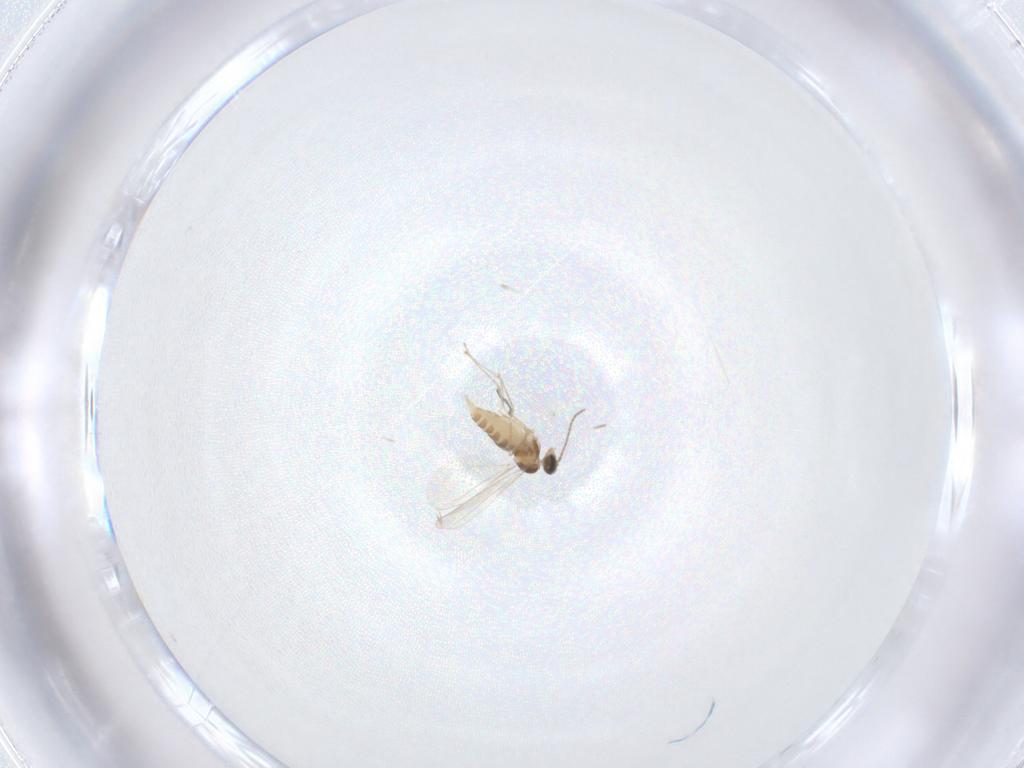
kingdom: Animalia
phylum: Arthropoda
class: Insecta
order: Diptera
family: Cecidomyiidae
